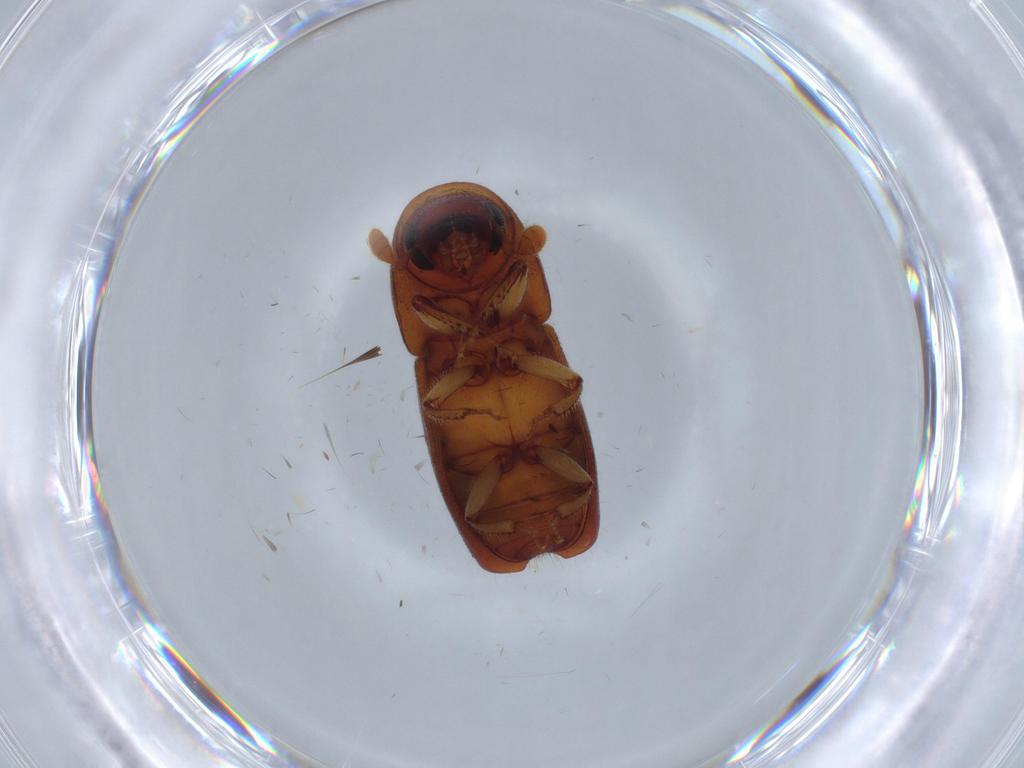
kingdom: Animalia
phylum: Arthropoda
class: Insecta
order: Coleoptera
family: Curculionidae
